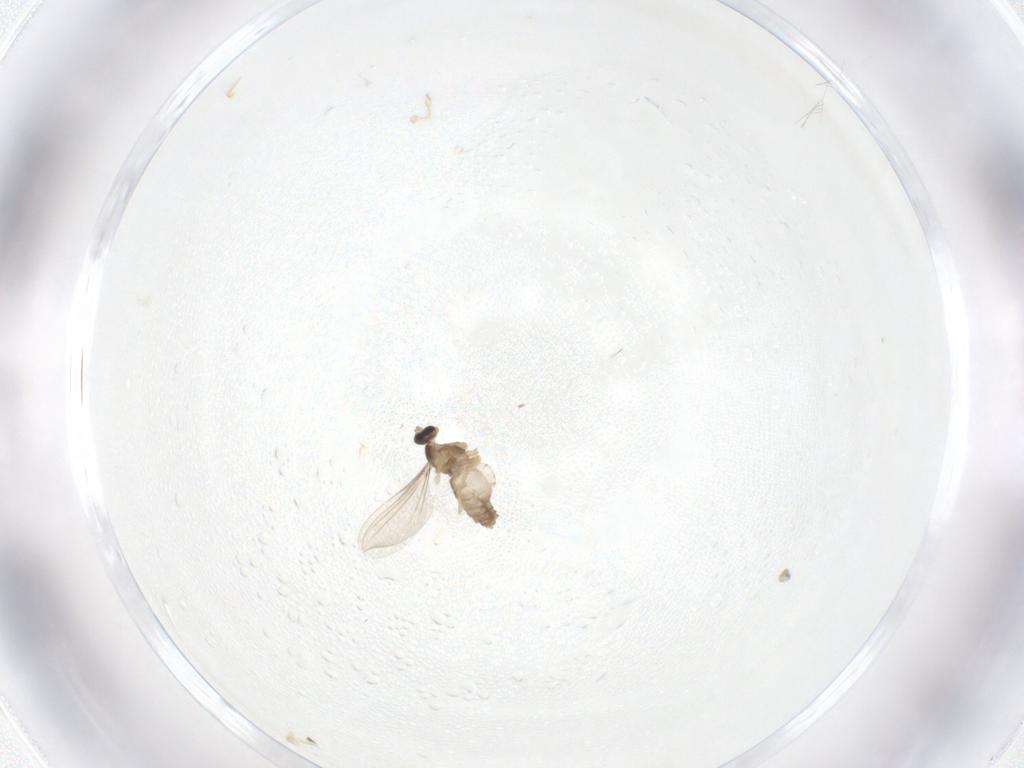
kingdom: Animalia
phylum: Arthropoda
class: Insecta
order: Diptera
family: Cecidomyiidae
